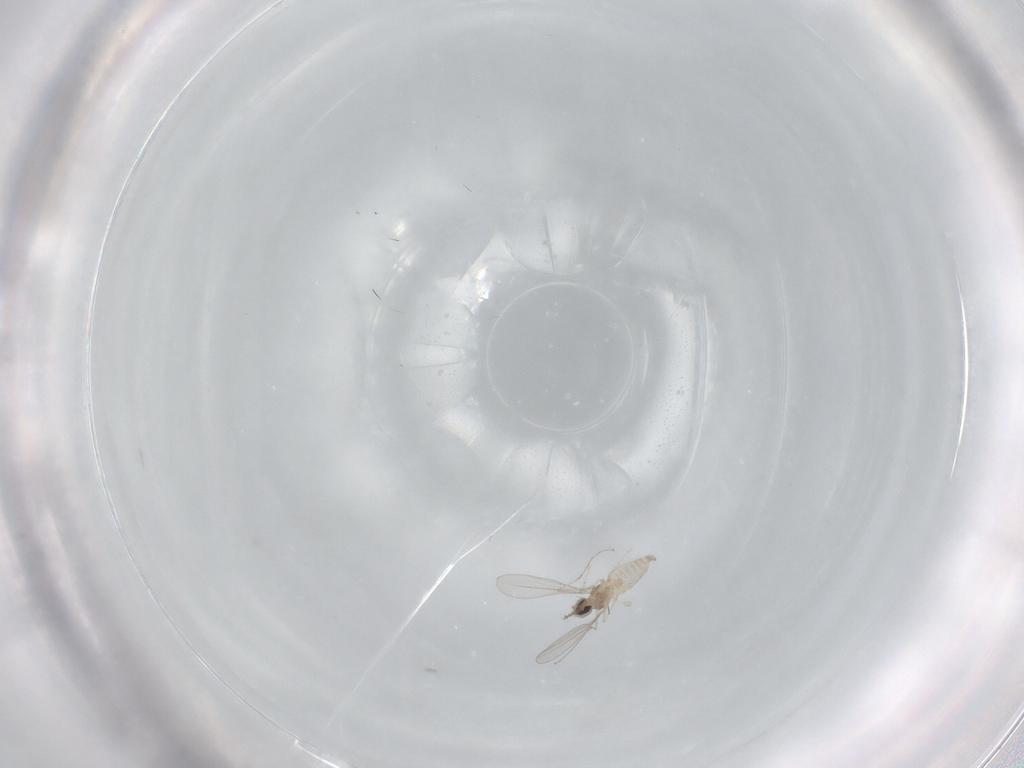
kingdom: Animalia
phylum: Arthropoda
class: Insecta
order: Diptera
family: Cecidomyiidae
